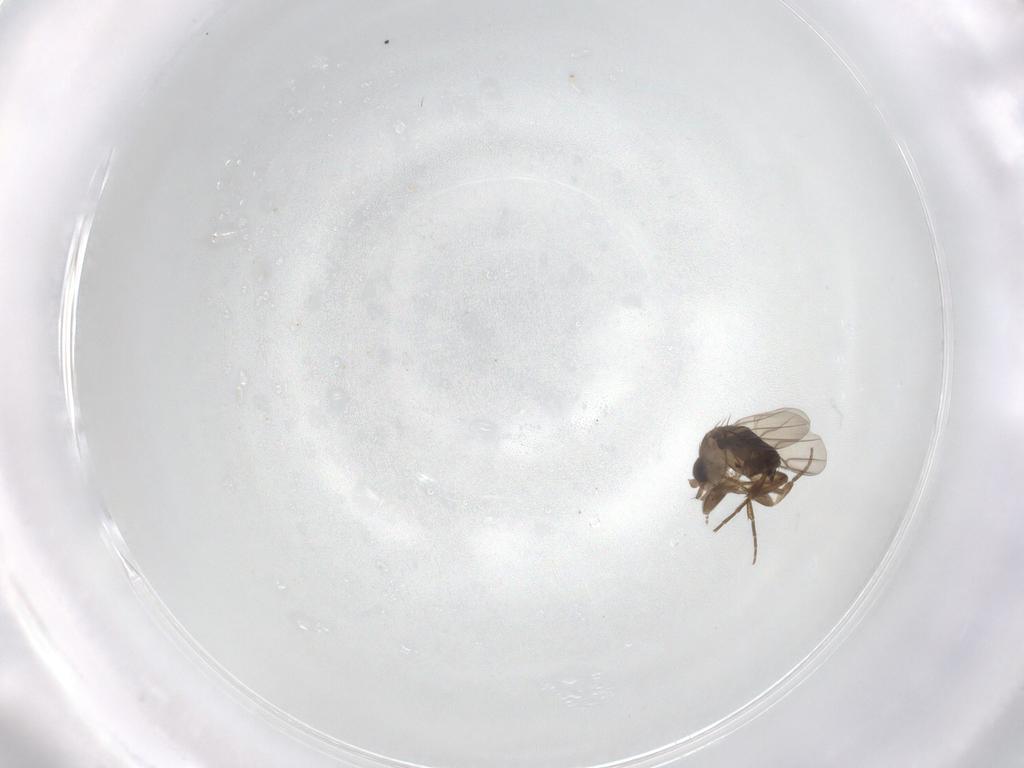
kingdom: Animalia
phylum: Arthropoda
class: Insecta
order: Diptera
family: Cecidomyiidae
